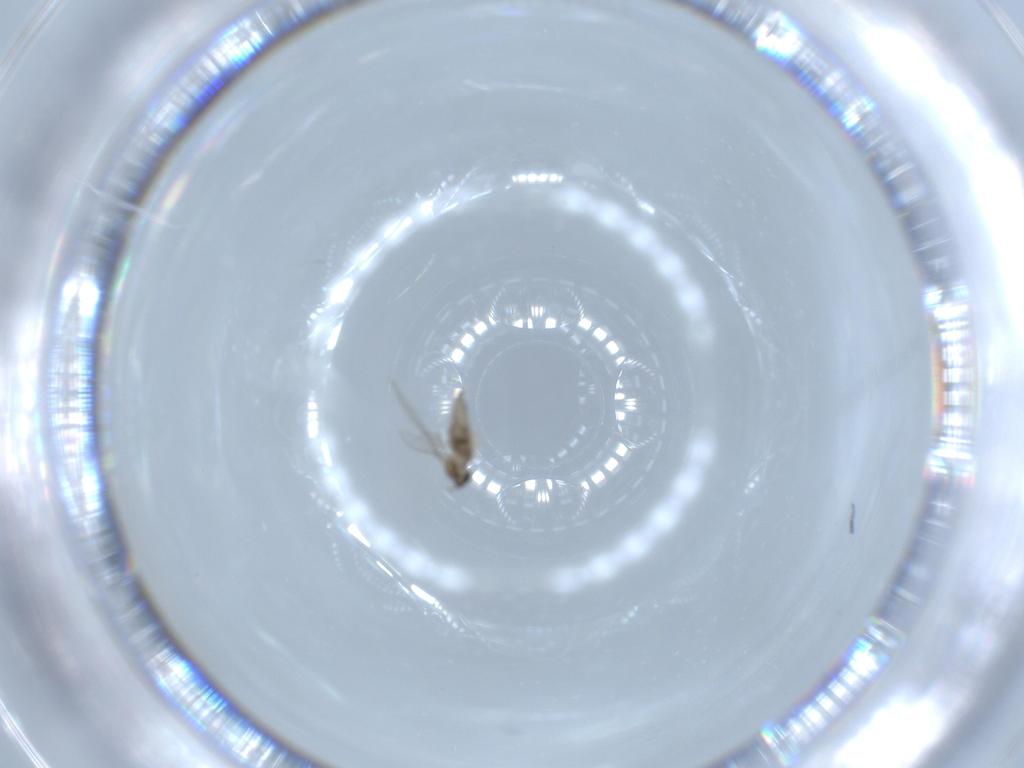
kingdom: Animalia
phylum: Arthropoda
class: Insecta
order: Diptera
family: Cecidomyiidae
